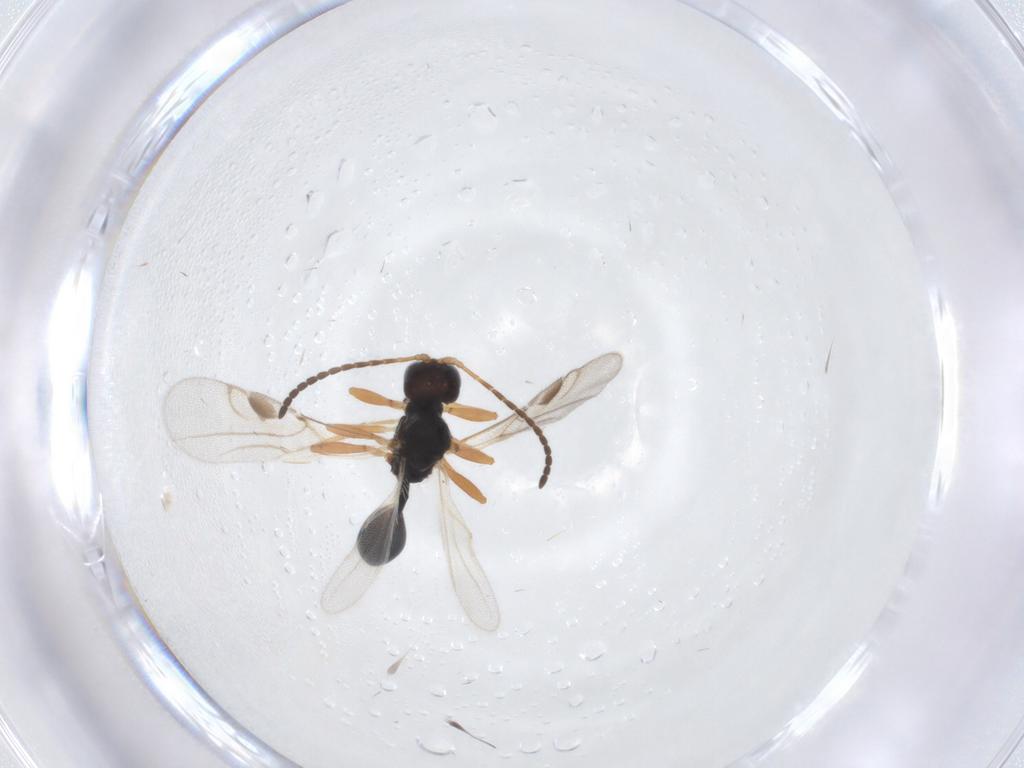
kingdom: Animalia
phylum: Arthropoda
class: Insecta
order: Hymenoptera
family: Braconidae
